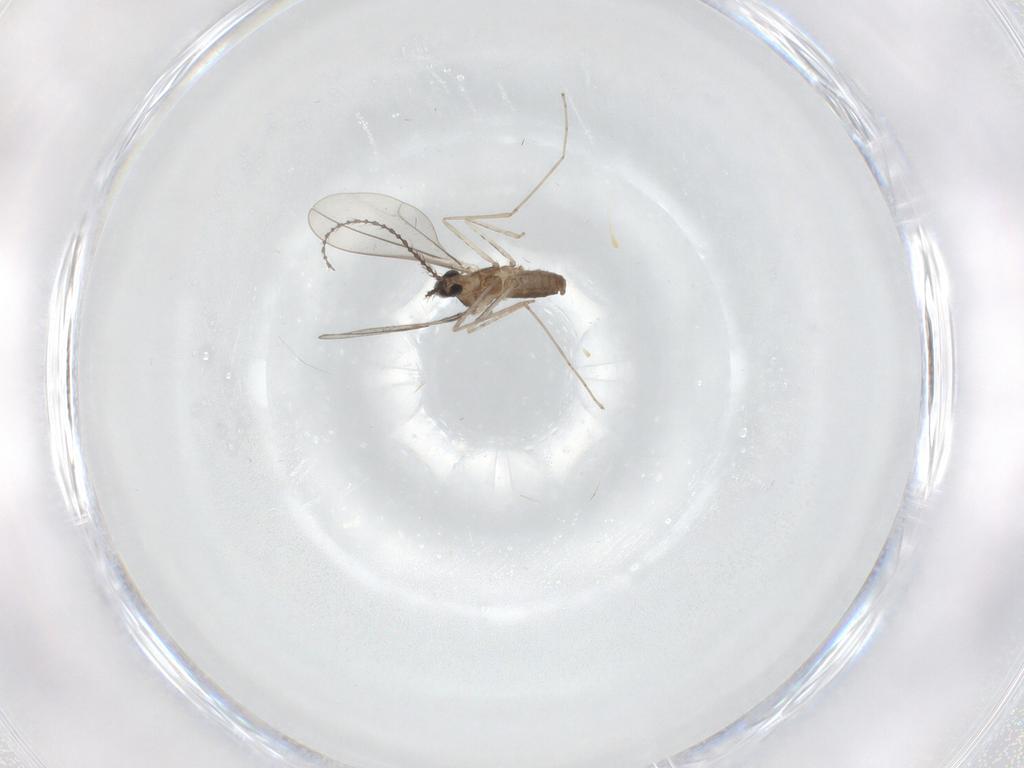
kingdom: Animalia
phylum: Arthropoda
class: Insecta
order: Diptera
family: Cecidomyiidae
